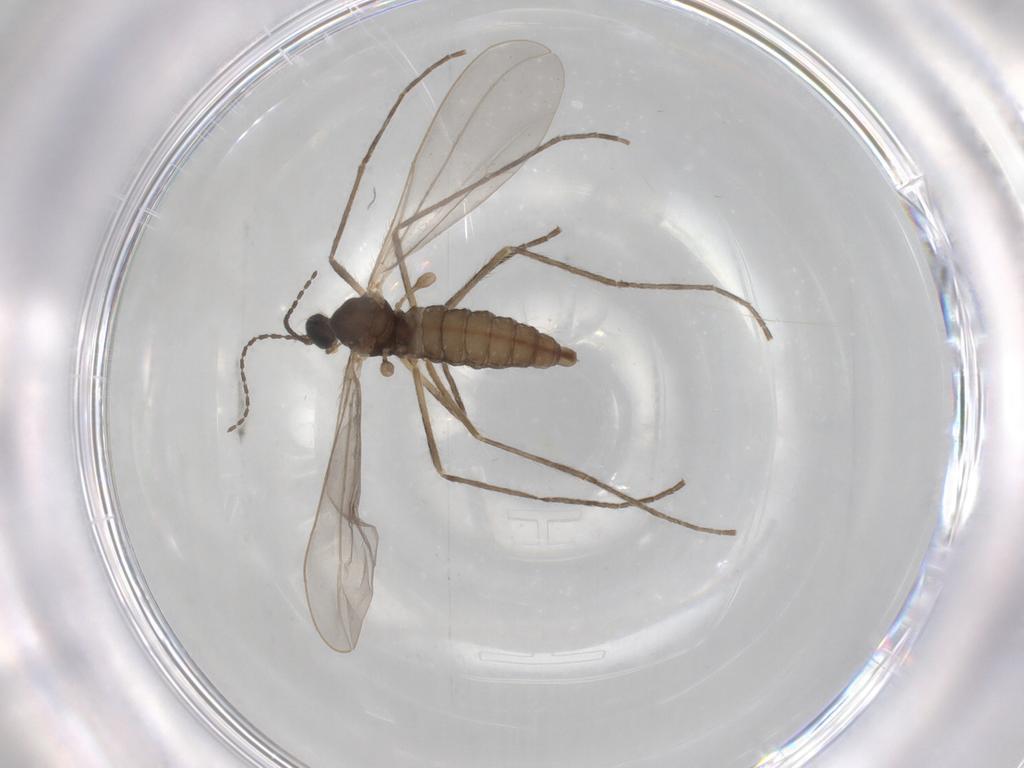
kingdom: Animalia
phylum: Arthropoda
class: Insecta
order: Diptera
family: Cecidomyiidae
